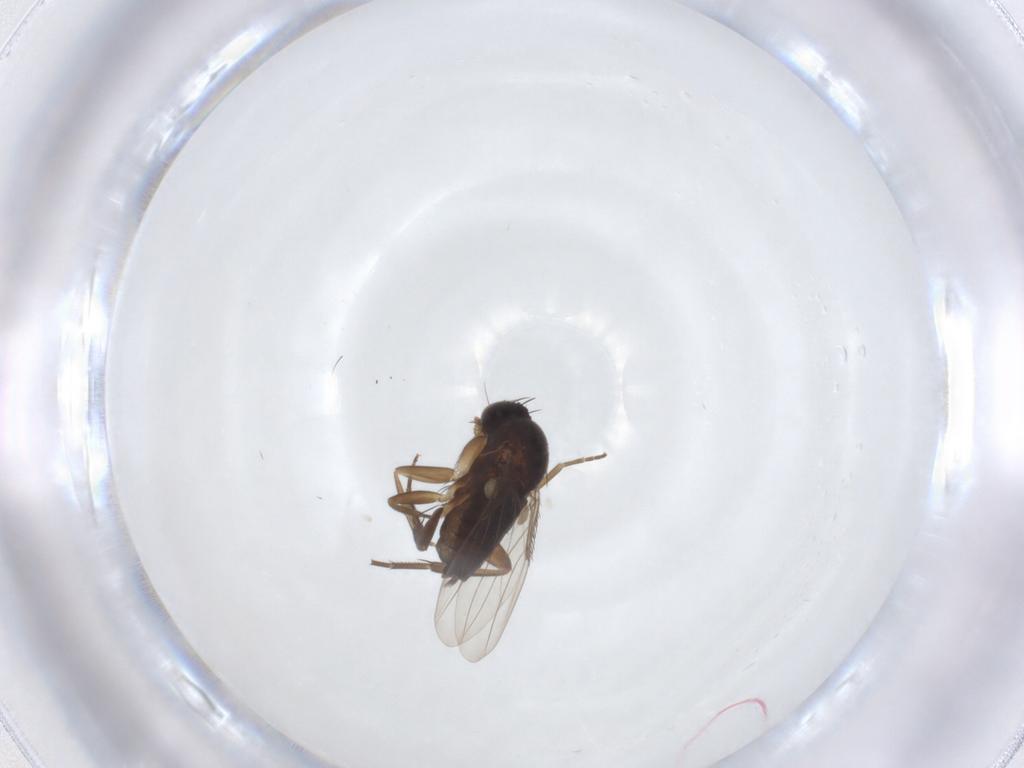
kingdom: Animalia
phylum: Arthropoda
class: Insecta
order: Diptera
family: Phoridae
